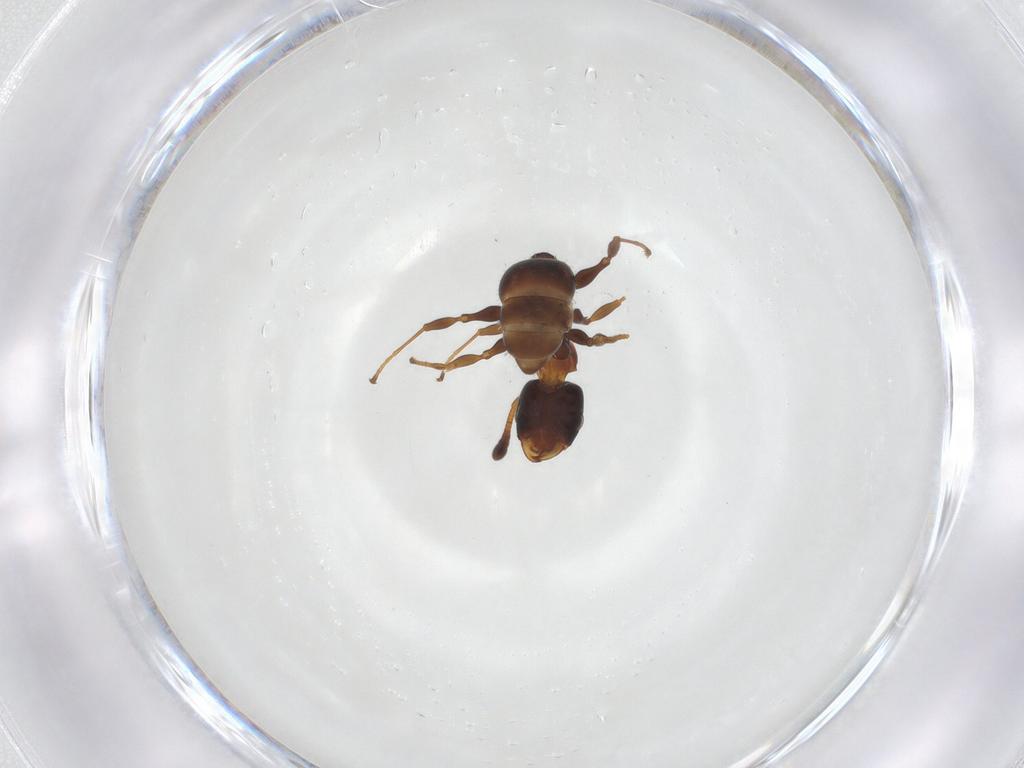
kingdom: Animalia
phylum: Arthropoda
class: Insecta
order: Hymenoptera
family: Formicidae
